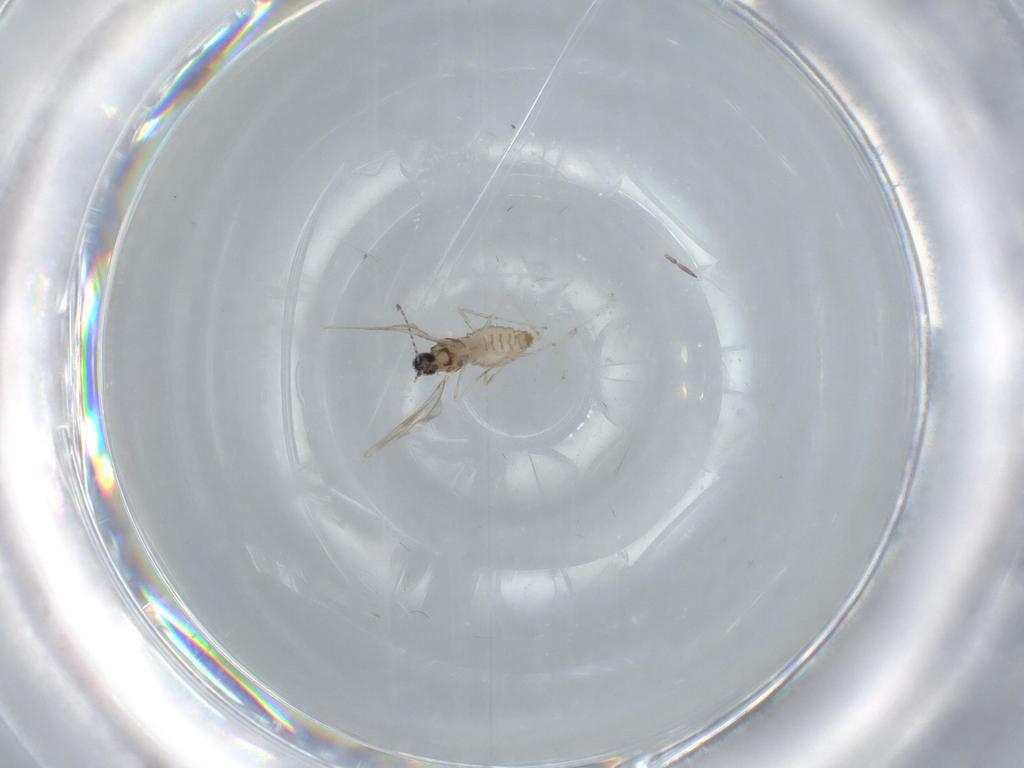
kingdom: Animalia
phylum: Arthropoda
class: Insecta
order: Diptera
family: Cecidomyiidae
